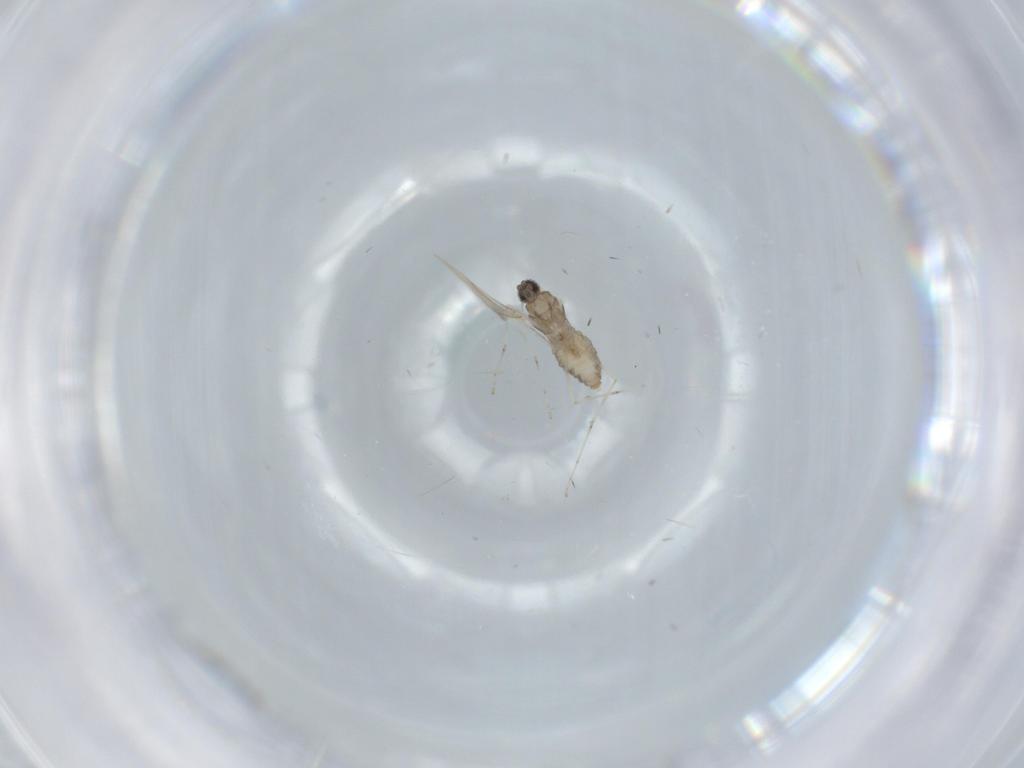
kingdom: Animalia
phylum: Arthropoda
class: Insecta
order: Diptera
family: Cecidomyiidae
